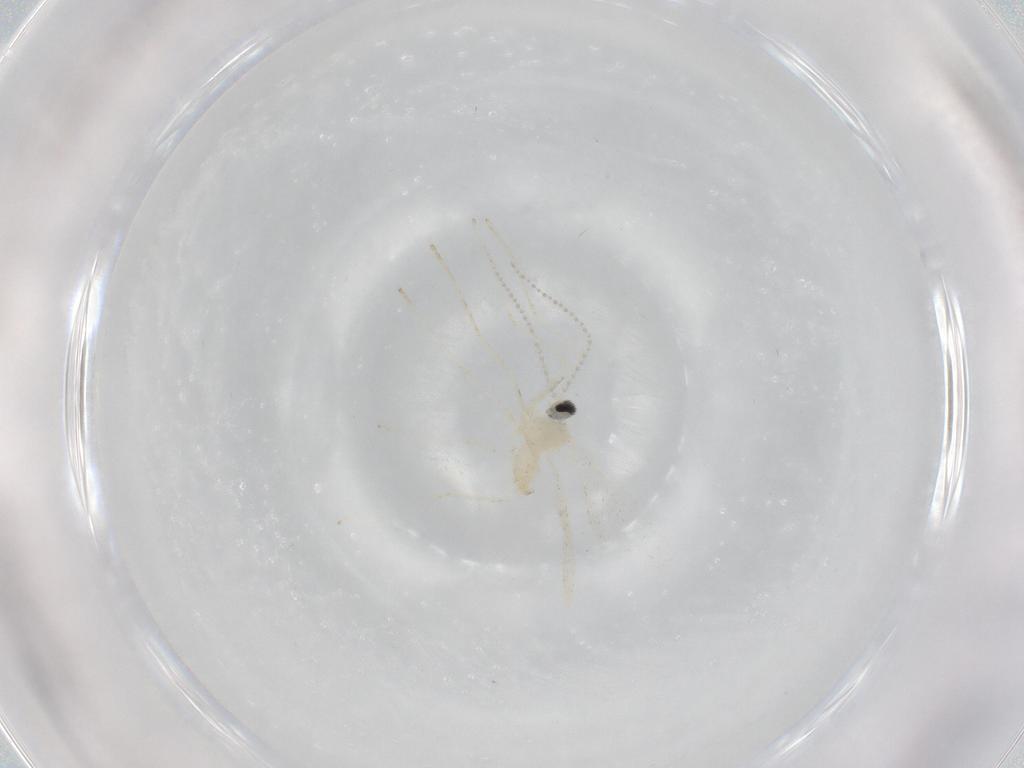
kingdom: Animalia
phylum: Arthropoda
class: Insecta
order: Diptera
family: Cecidomyiidae
